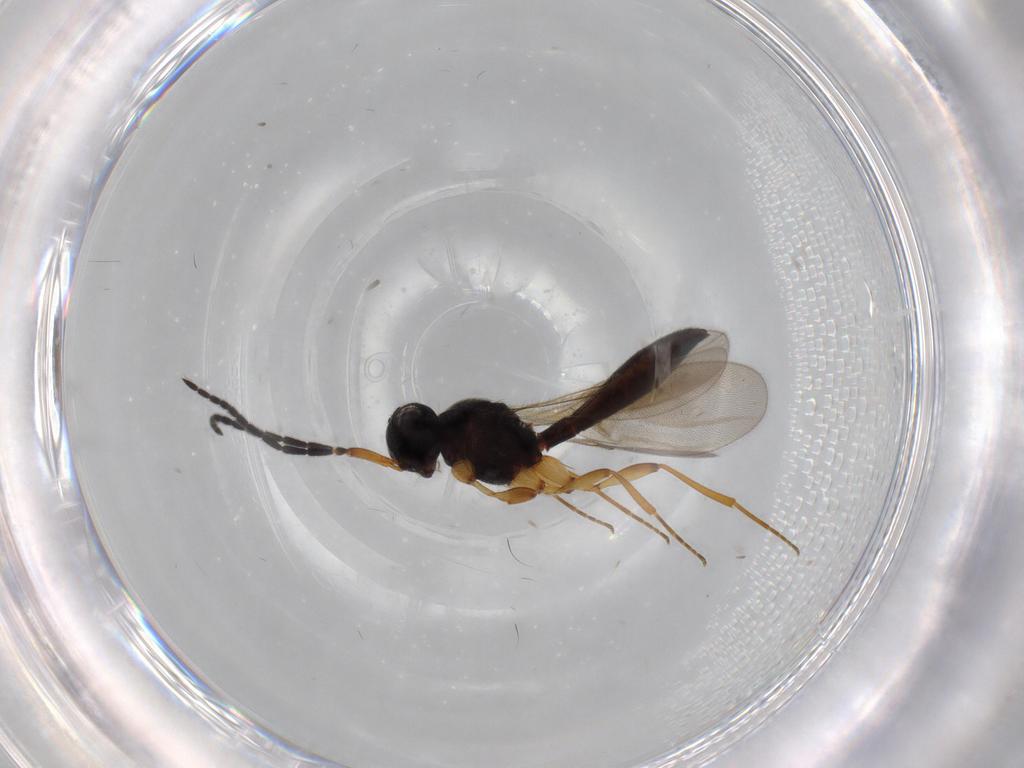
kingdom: Animalia
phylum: Arthropoda
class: Insecta
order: Hymenoptera
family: Scelionidae
